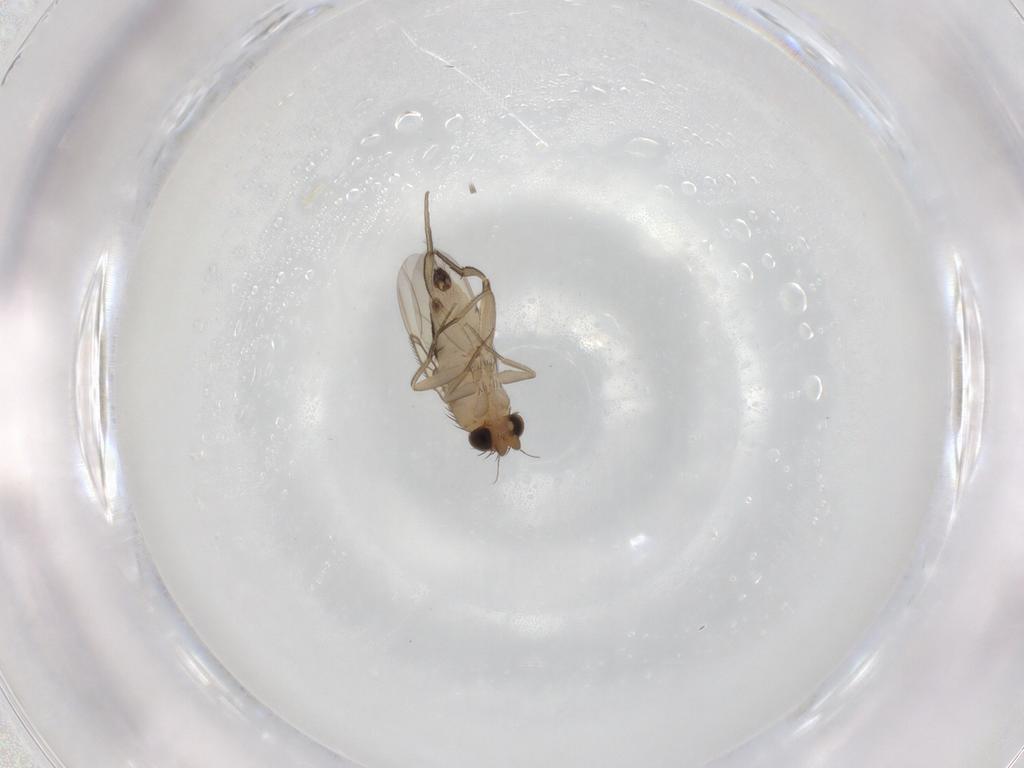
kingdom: Animalia
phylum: Arthropoda
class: Insecta
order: Diptera
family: Phoridae
